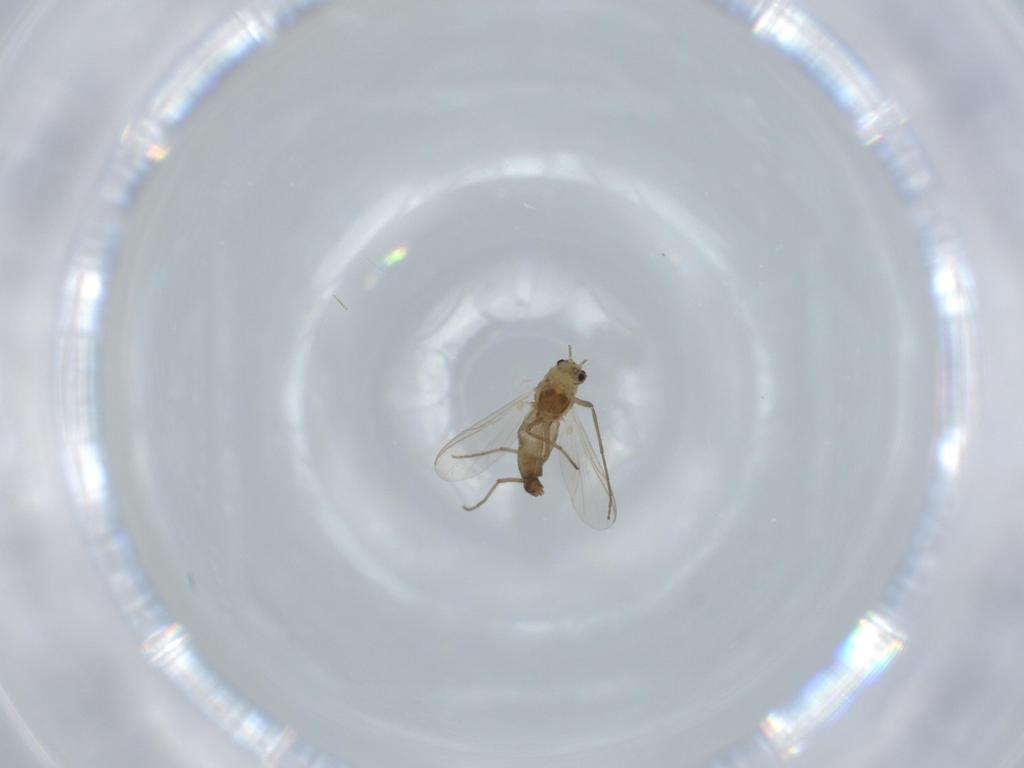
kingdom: Animalia
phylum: Arthropoda
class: Insecta
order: Diptera
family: Chironomidae
